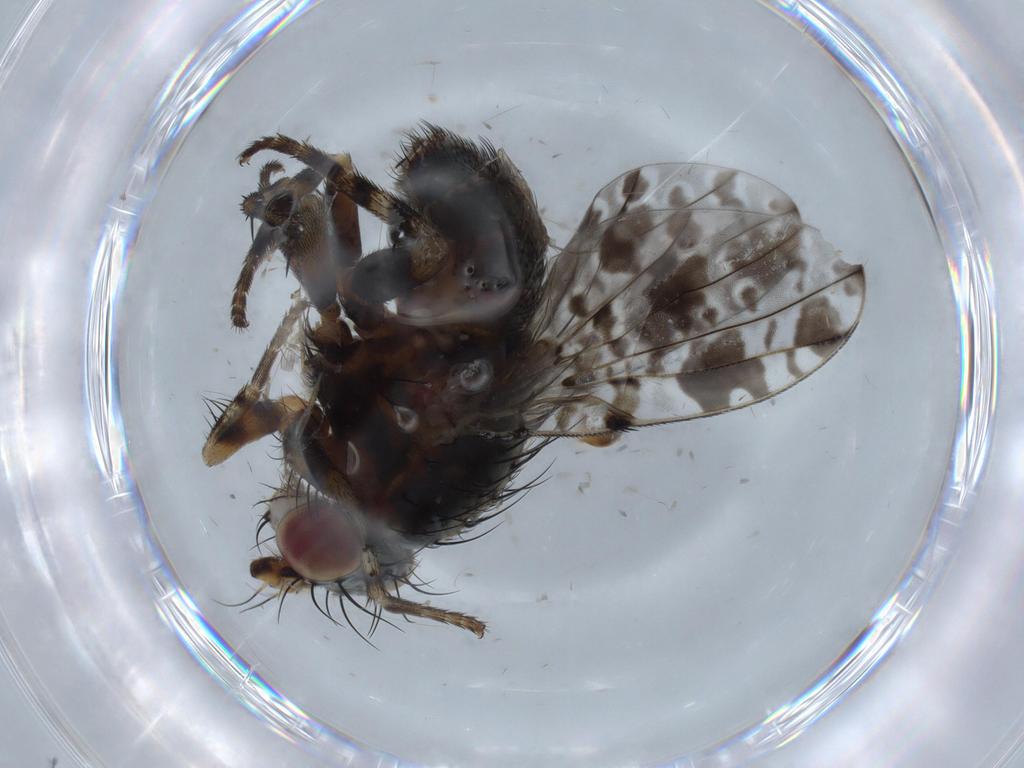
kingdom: Animalia
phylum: Arthropoda
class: Insecta
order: Diptera
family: Odiniidae
